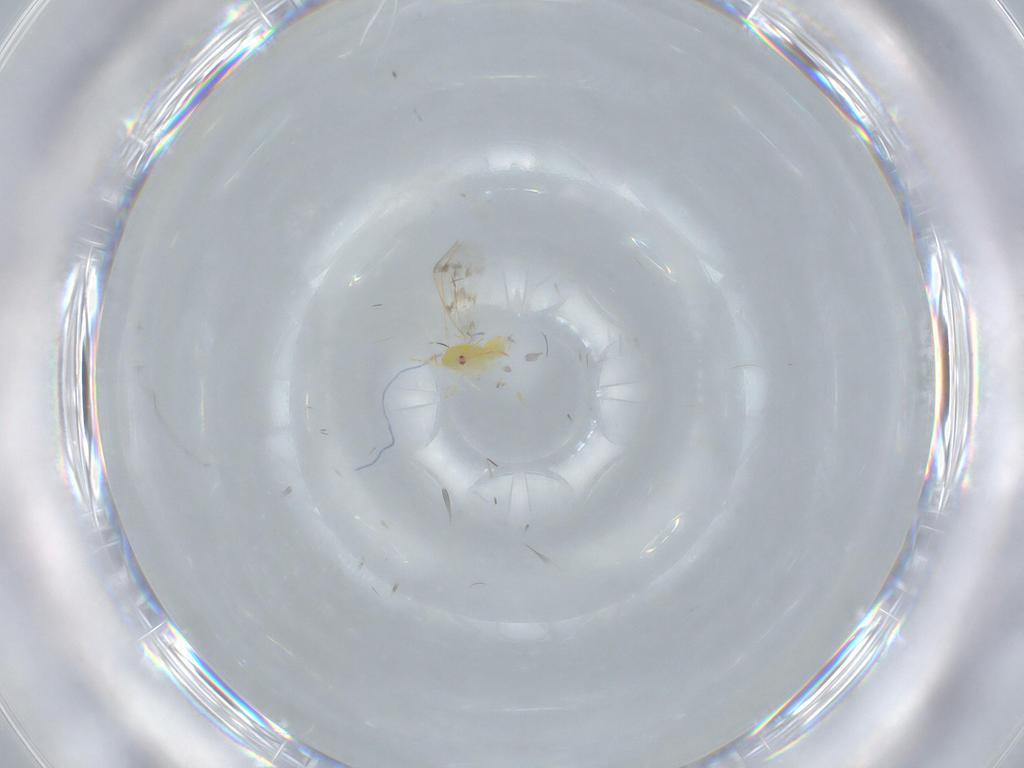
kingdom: Animalia
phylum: Arthropoda
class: Insecta
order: Hemiptera
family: Aleyrodidae
